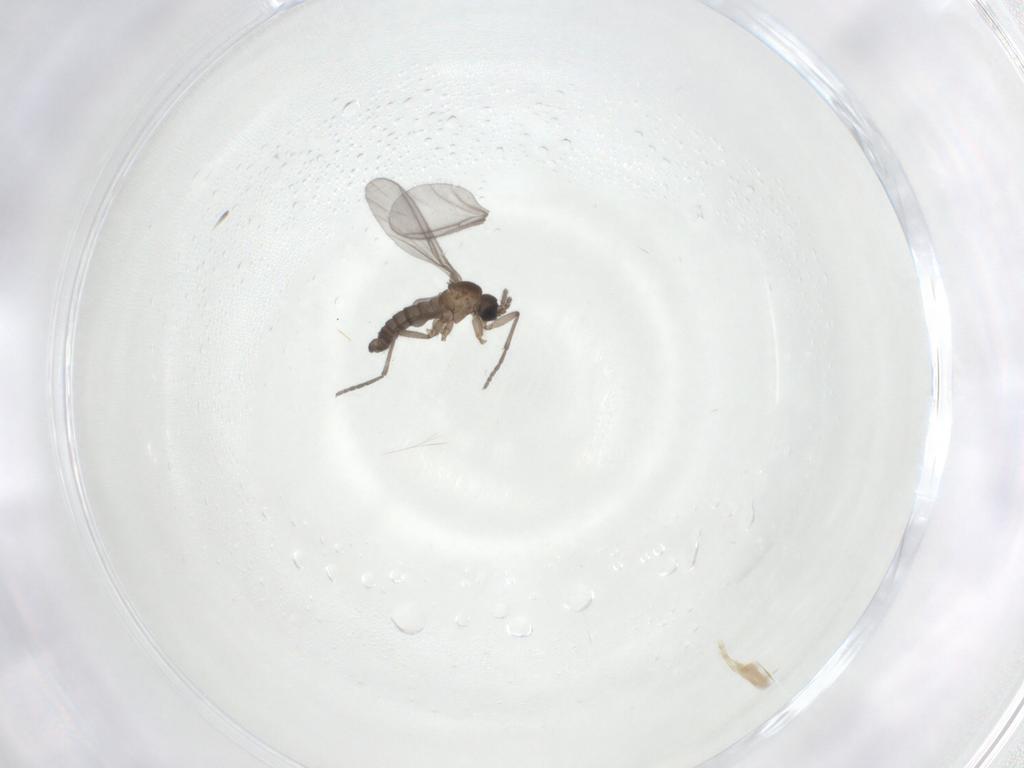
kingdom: Animalia
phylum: Arthropoda
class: Insecta
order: Diptera
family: Sciaridae
